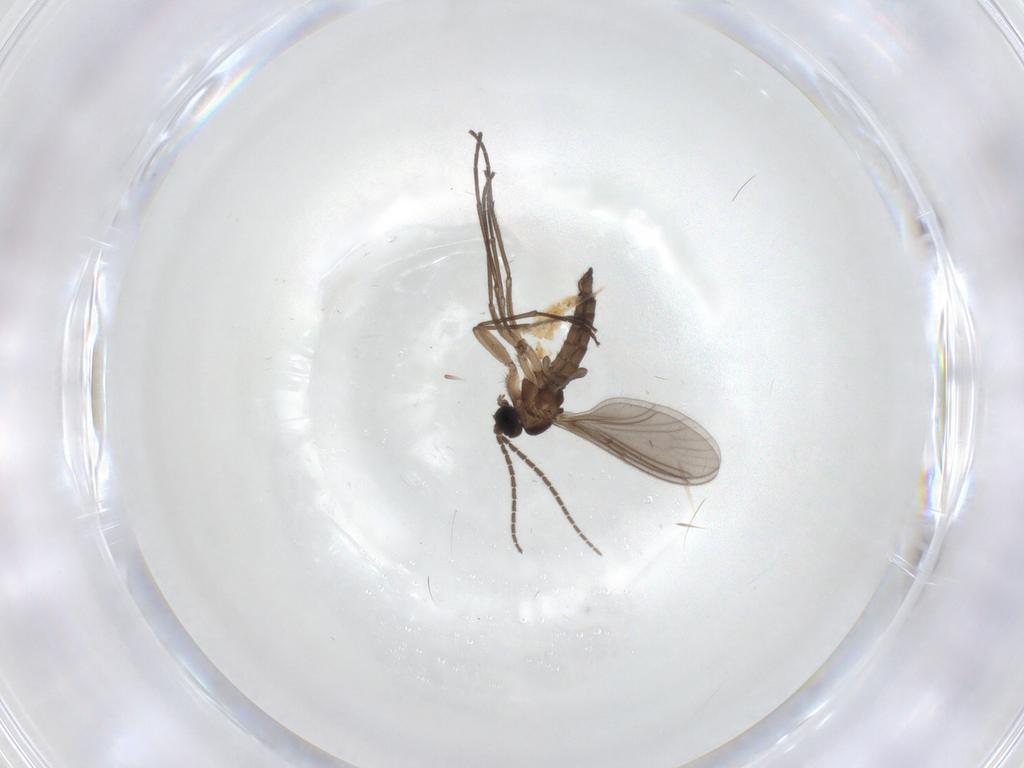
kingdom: Animalia
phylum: Arthropoda
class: Insecta
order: Diptera
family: Sciaridae
